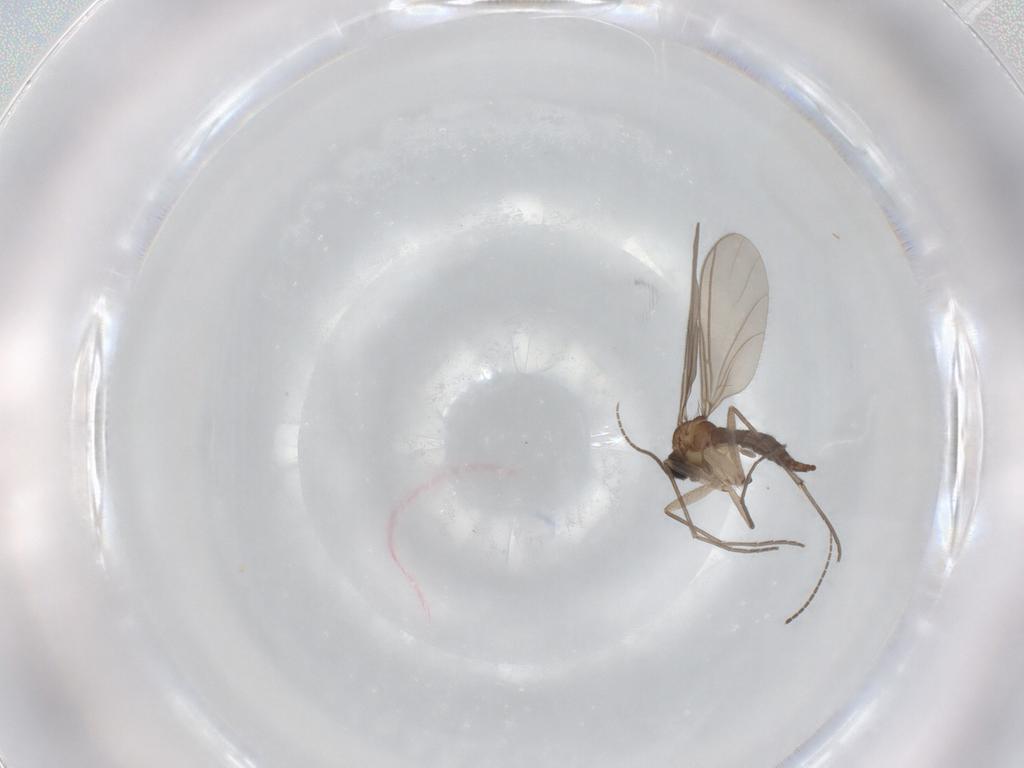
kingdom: Animalia
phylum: Arthropoda
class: Insecta
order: Diptera
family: Sciaridae
